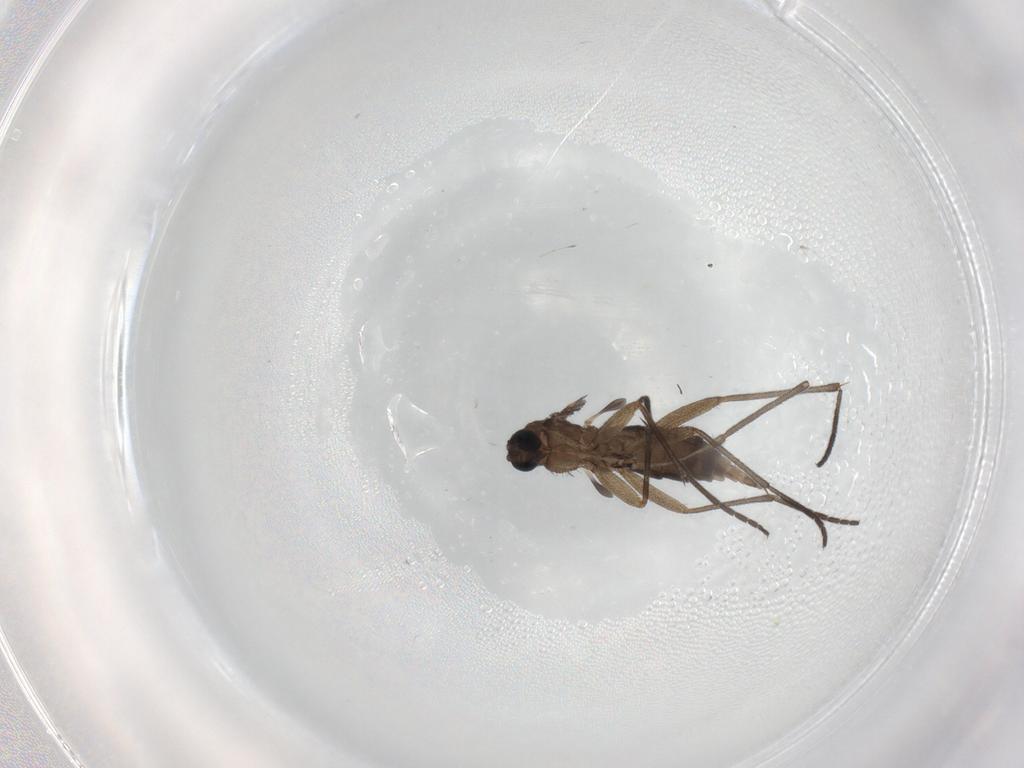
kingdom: Animalia
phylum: Arthropoda
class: Insecta
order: Diptera
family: Sciaridae
